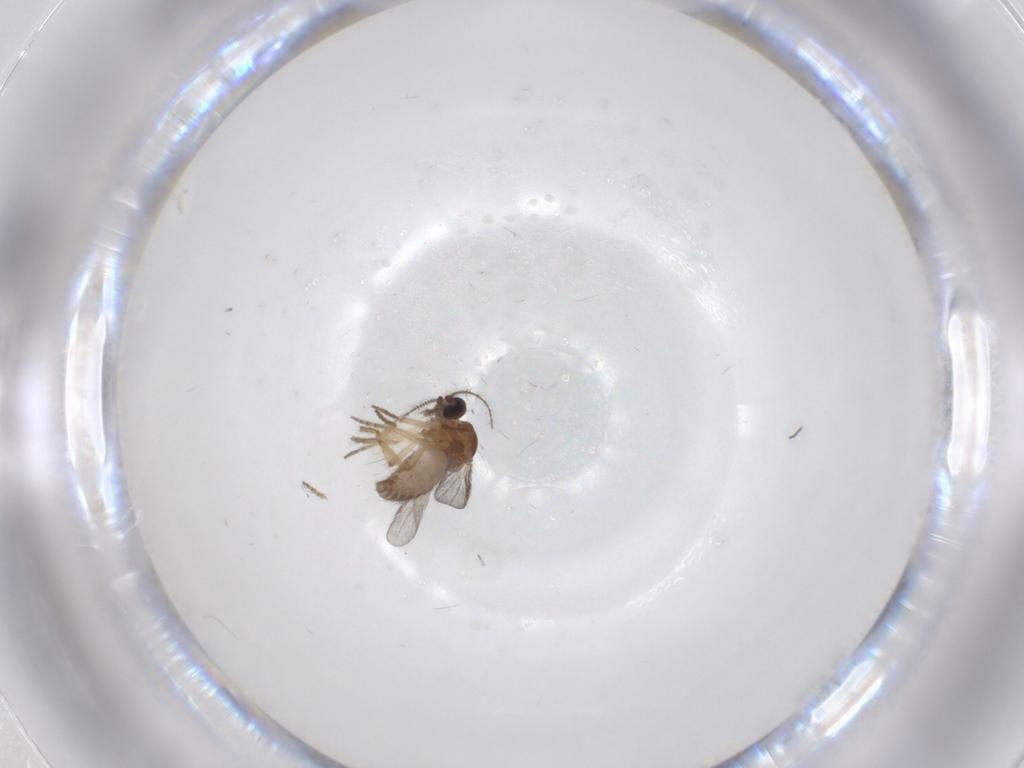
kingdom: Animalia
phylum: Arthropoda
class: Insecta
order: Diptera
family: Ceratopogonidae
